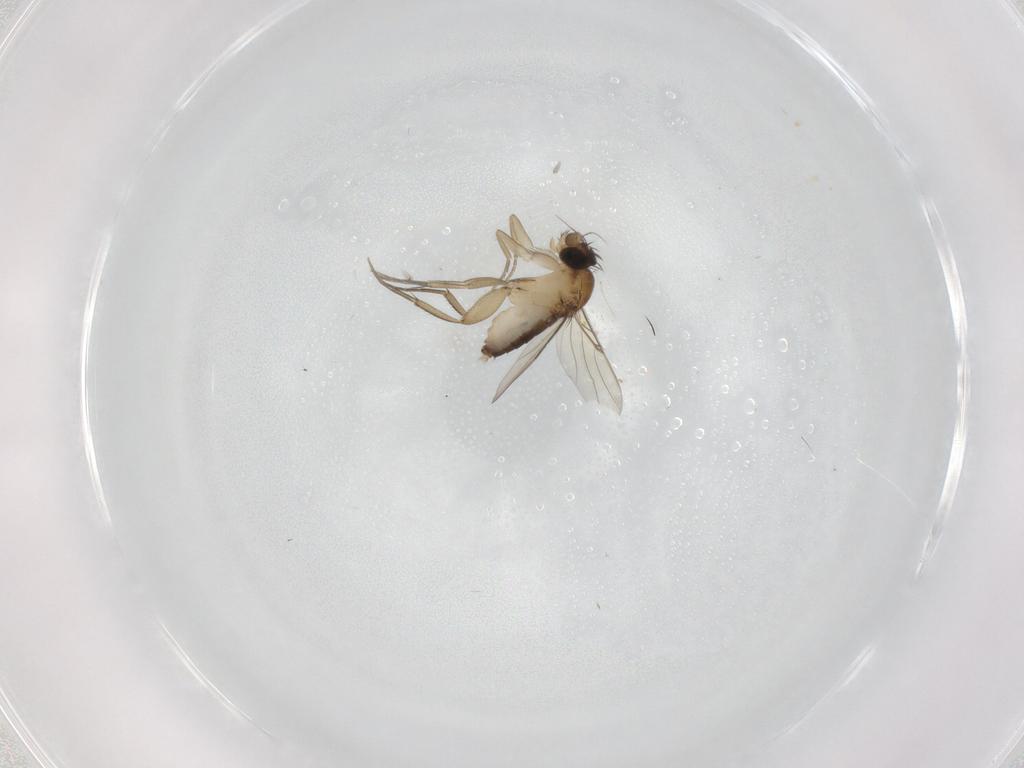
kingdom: Animalia
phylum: Arthropoda
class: Insecta
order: Diptera
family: Phoridae
